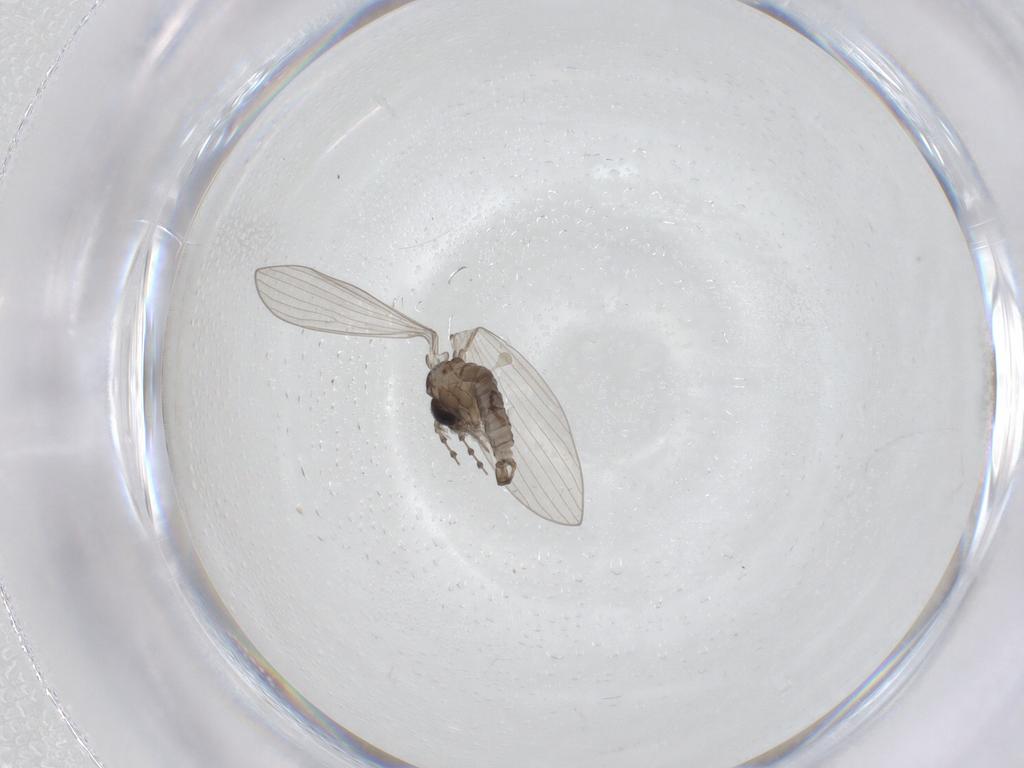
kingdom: Animalia
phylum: Arthropoda
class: Insecta
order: Diptera
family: Psychodidae
